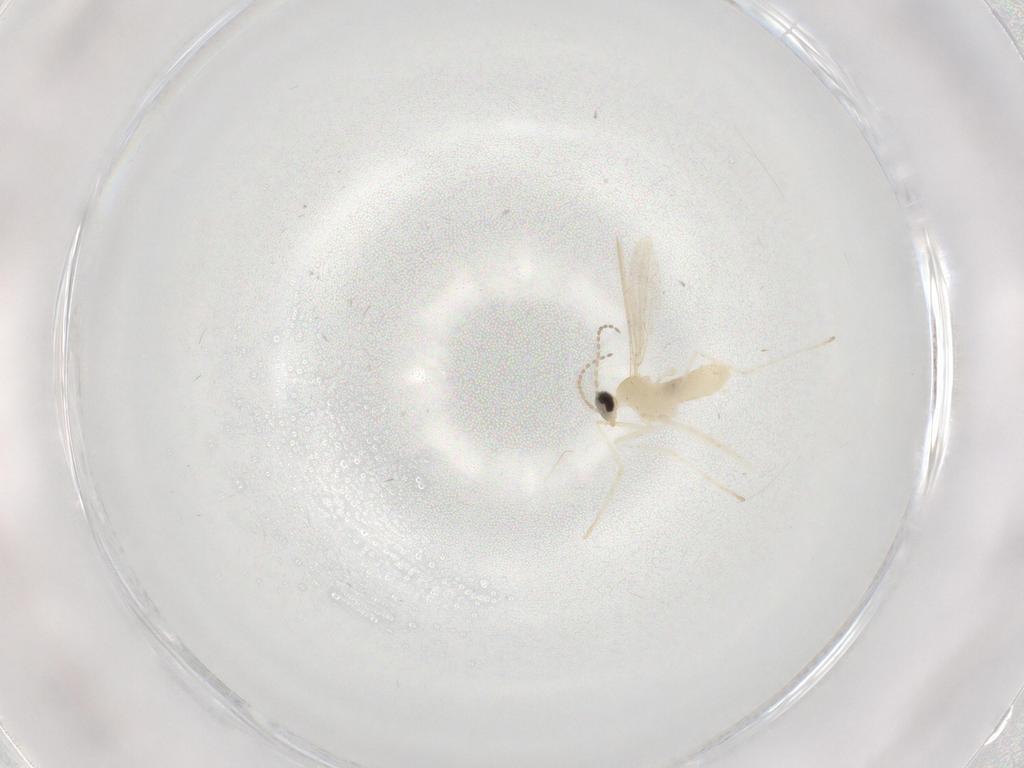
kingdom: Animalia
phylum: Arthropoda
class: Insecta
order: Diptera
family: Cecidomyiidae
